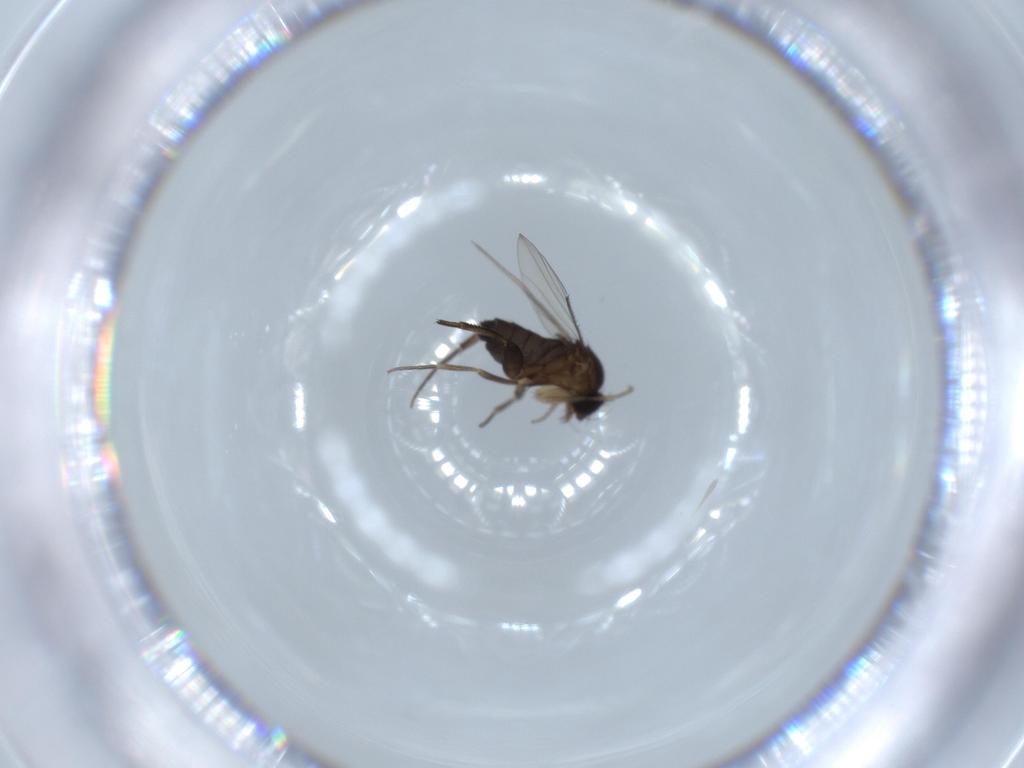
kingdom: Animalia
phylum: Arthropoda
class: Insecta
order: Diptera
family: Phoridae
